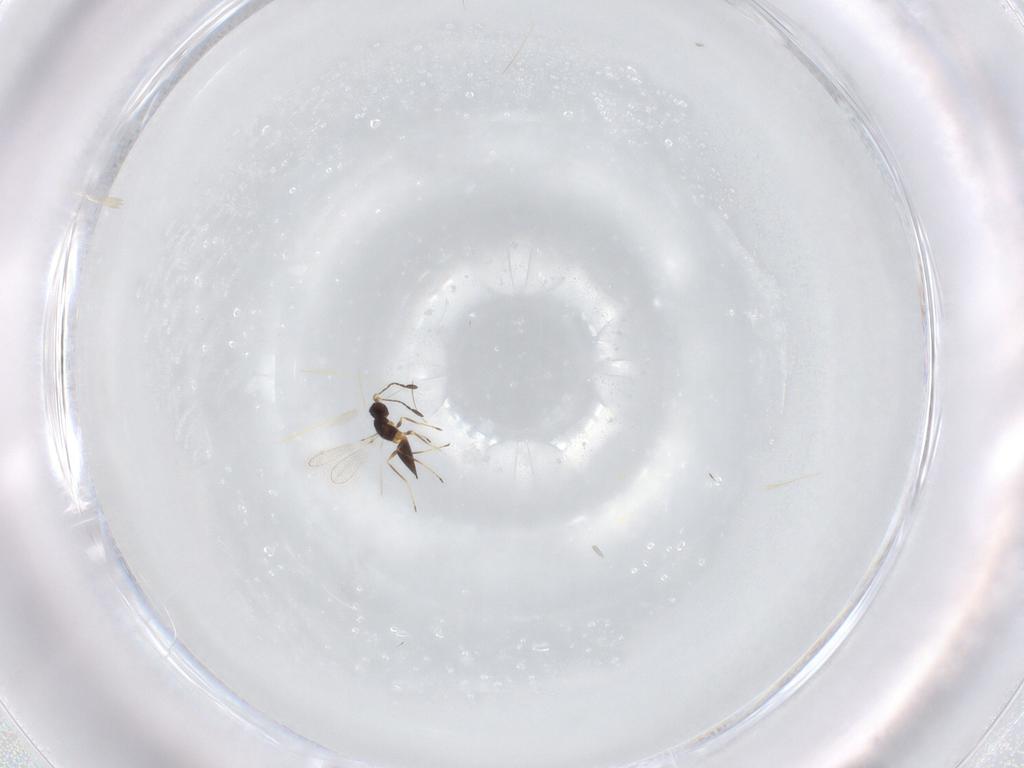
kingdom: Animalia
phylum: Arthropoda
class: Insecta
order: Hymenoptera
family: Mymaridae
